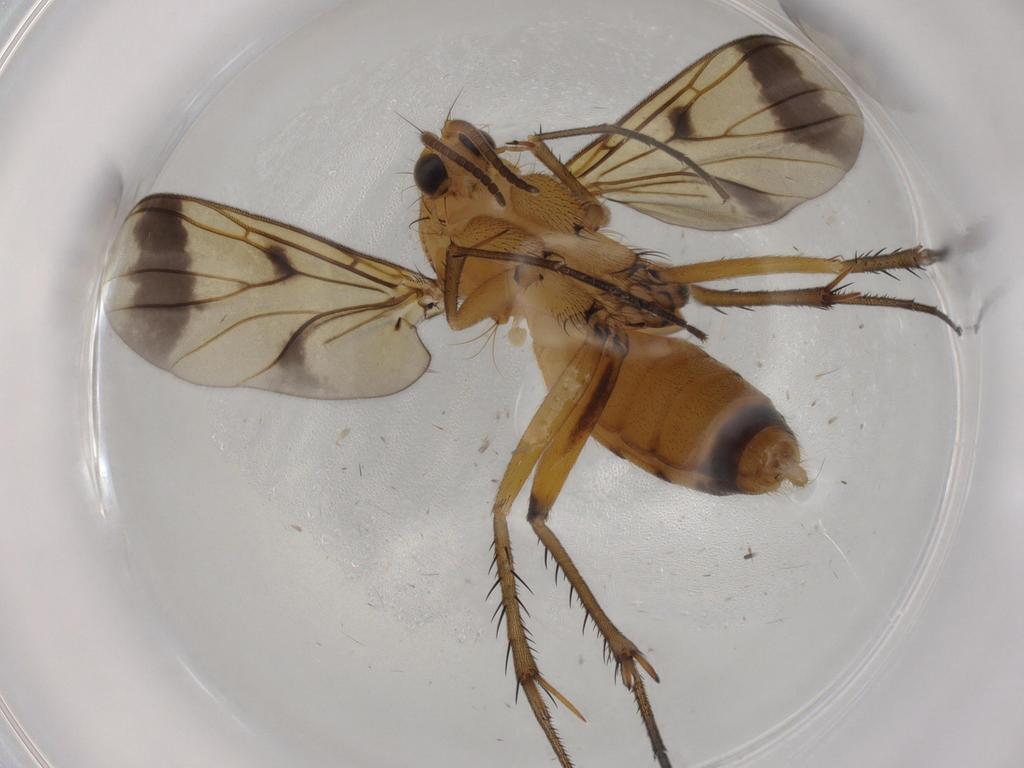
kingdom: Animalia
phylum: Arthropoda
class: Insecta
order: Diptera
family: Mycetophilidae
